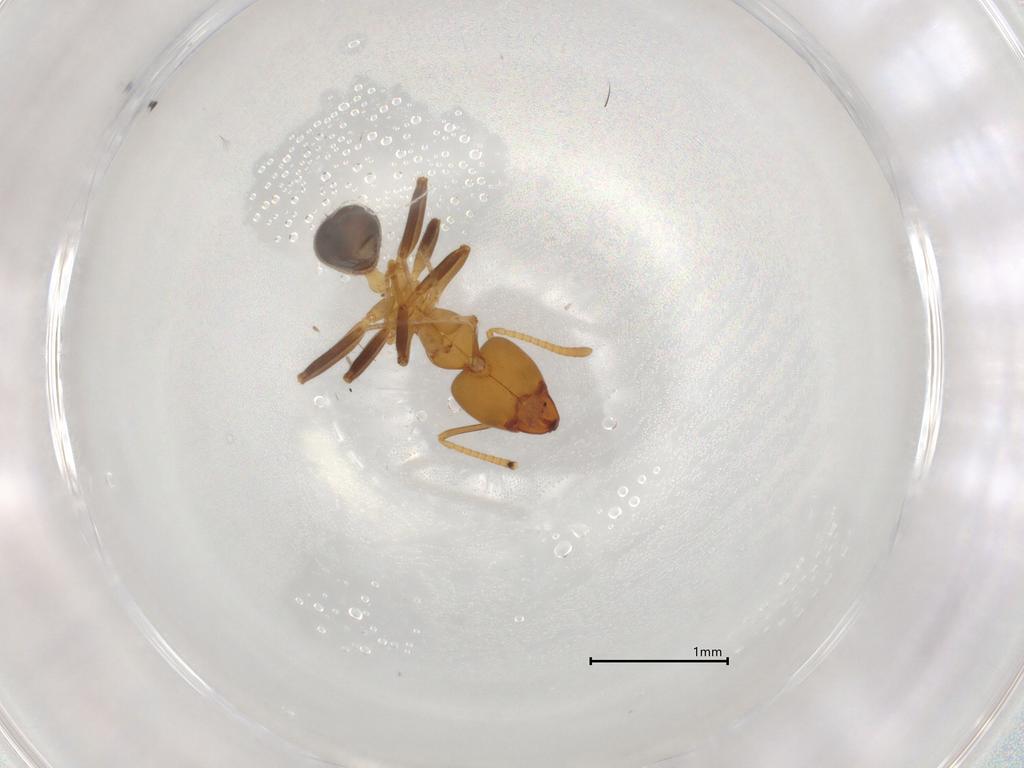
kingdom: Animalia
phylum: Arthropoda
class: Insecta
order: Hymenoptera
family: Formicidae
